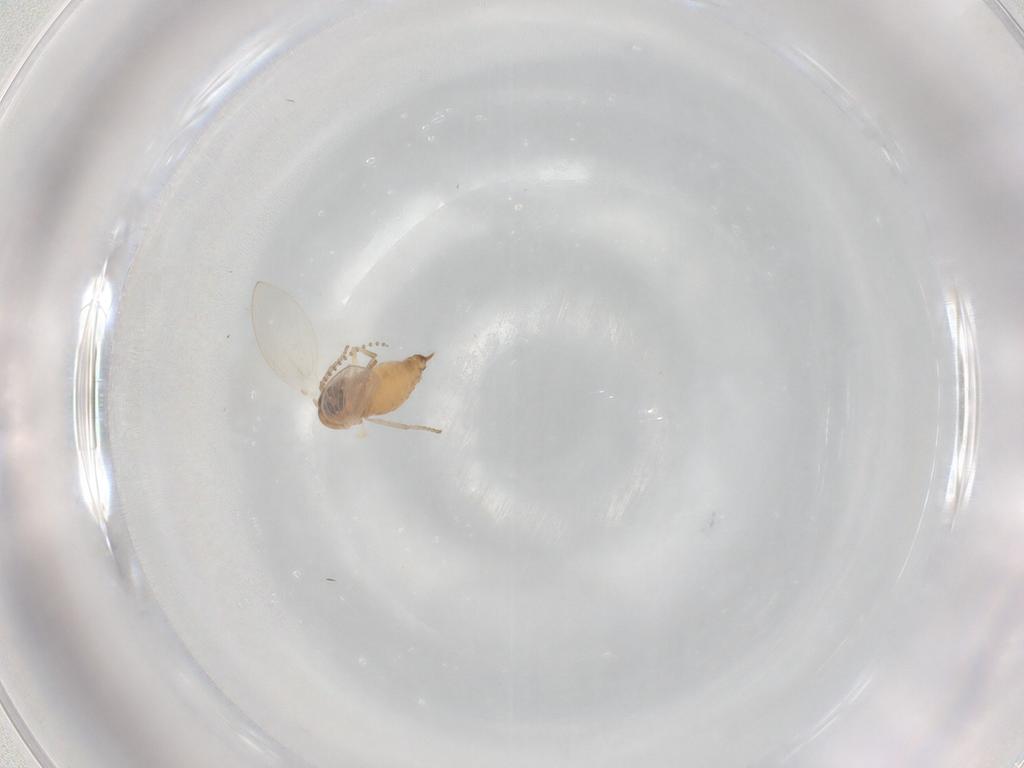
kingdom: Animalia
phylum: Arthropoda
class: Insecta
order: Diptera
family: Psychodidae
